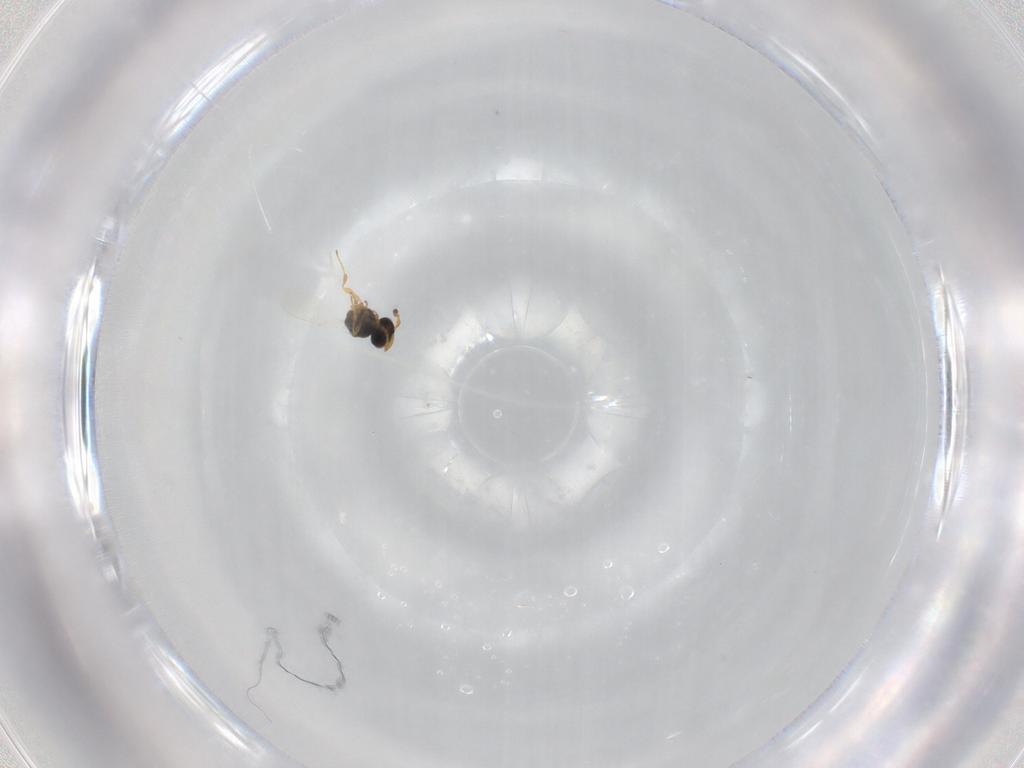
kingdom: Animalia
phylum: Arthropoda
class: Insecta
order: Hymenoptera
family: Platygastridae
